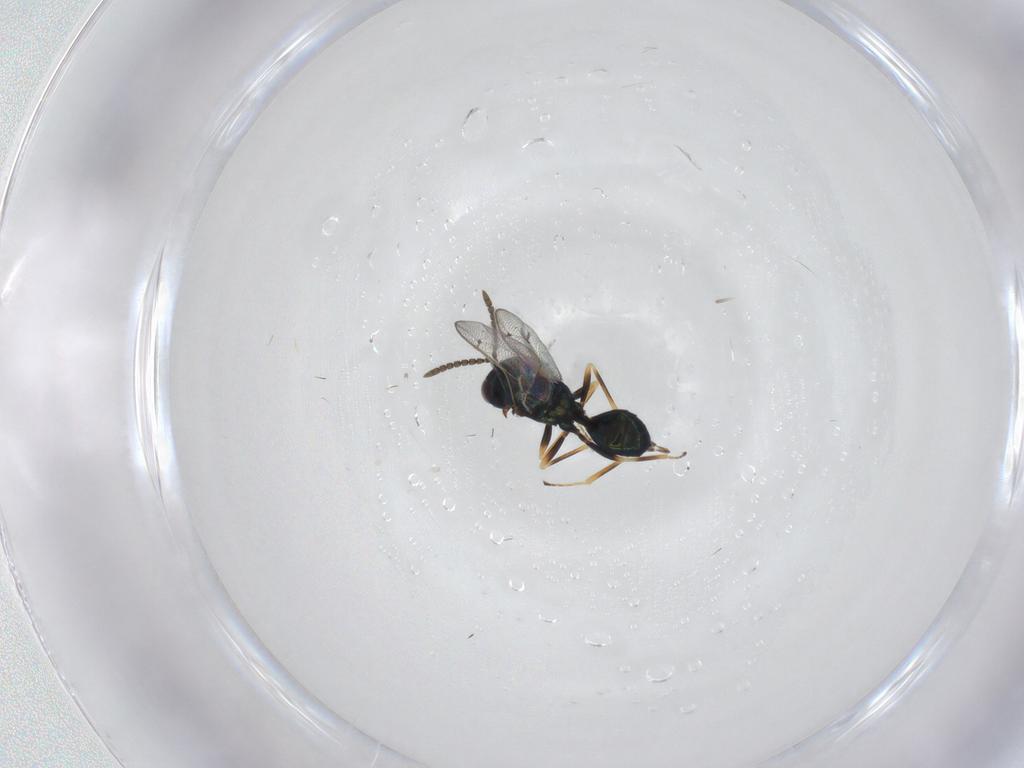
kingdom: Animalia
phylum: Arthropoda
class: Insecta
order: Hymenoptera
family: Pteromalidae
